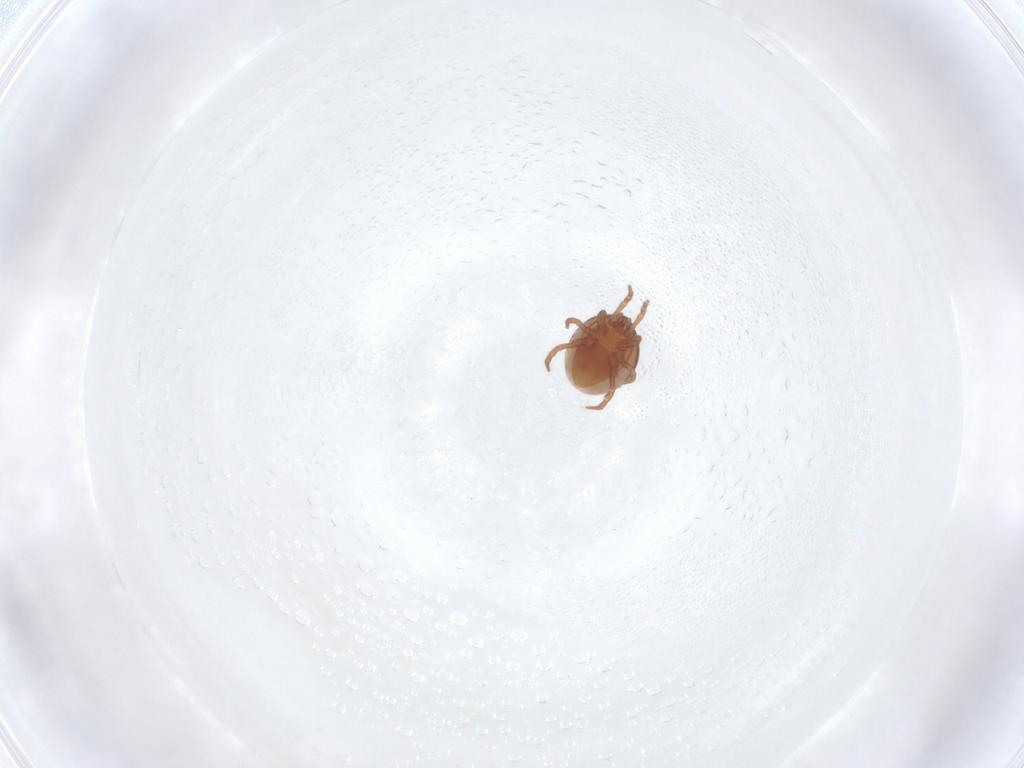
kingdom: Animalia
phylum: Arthropoda
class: Arachnida
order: Mesostigmata
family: Laelapidae
